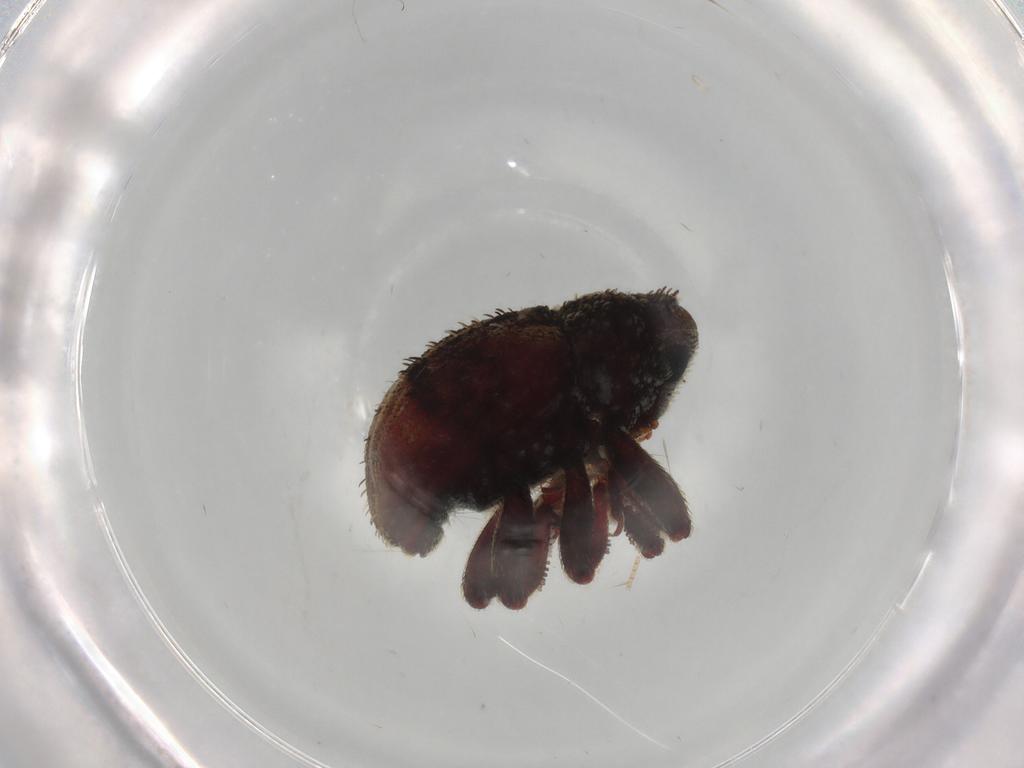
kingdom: Animalia
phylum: Arthropoda
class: Insecta
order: Coleoptera
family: Curculionidae
